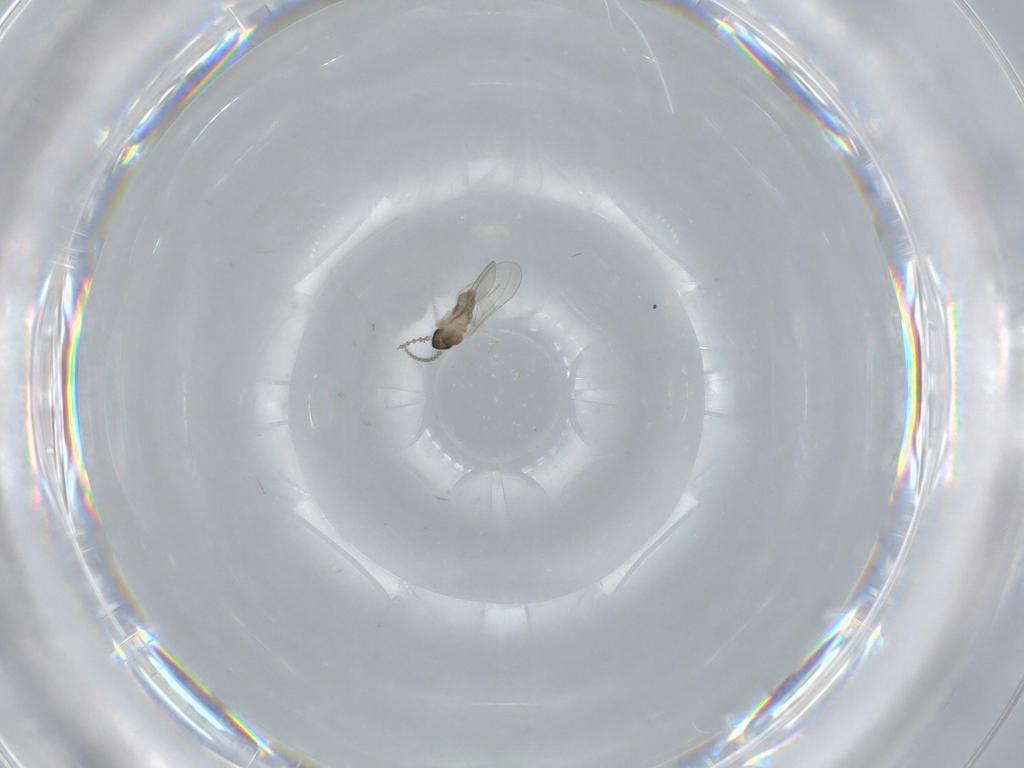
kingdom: Animalia
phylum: Arthropoda
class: Insecta
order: Diptera
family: Cecidomyiidae
